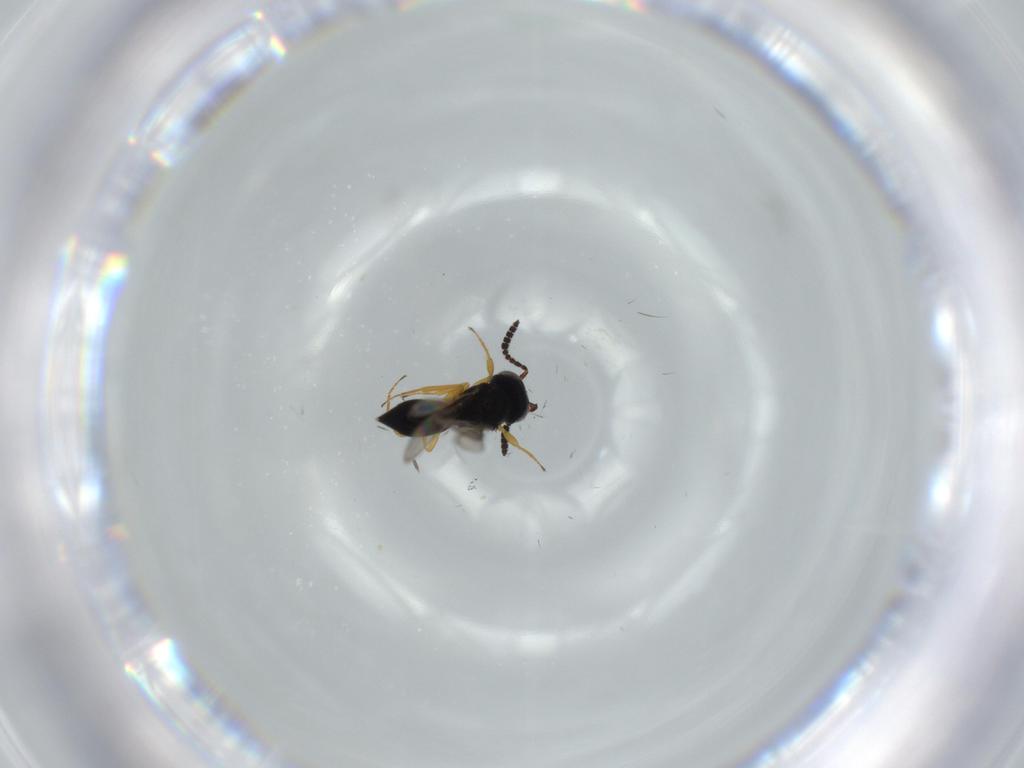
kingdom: Animalia
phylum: Arthropoda
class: Insecta
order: Hymenoptera
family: Scelionidae
